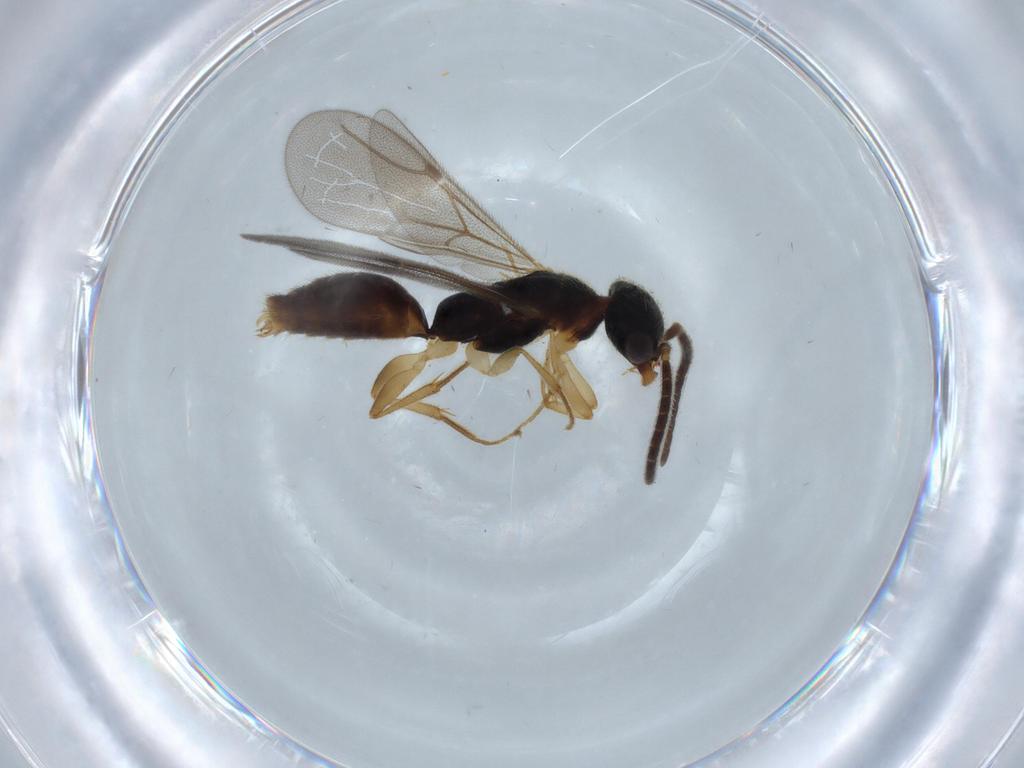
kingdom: Animalia
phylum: Arthropoda
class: Insecta
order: Hymenoptera
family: Bethylidae
